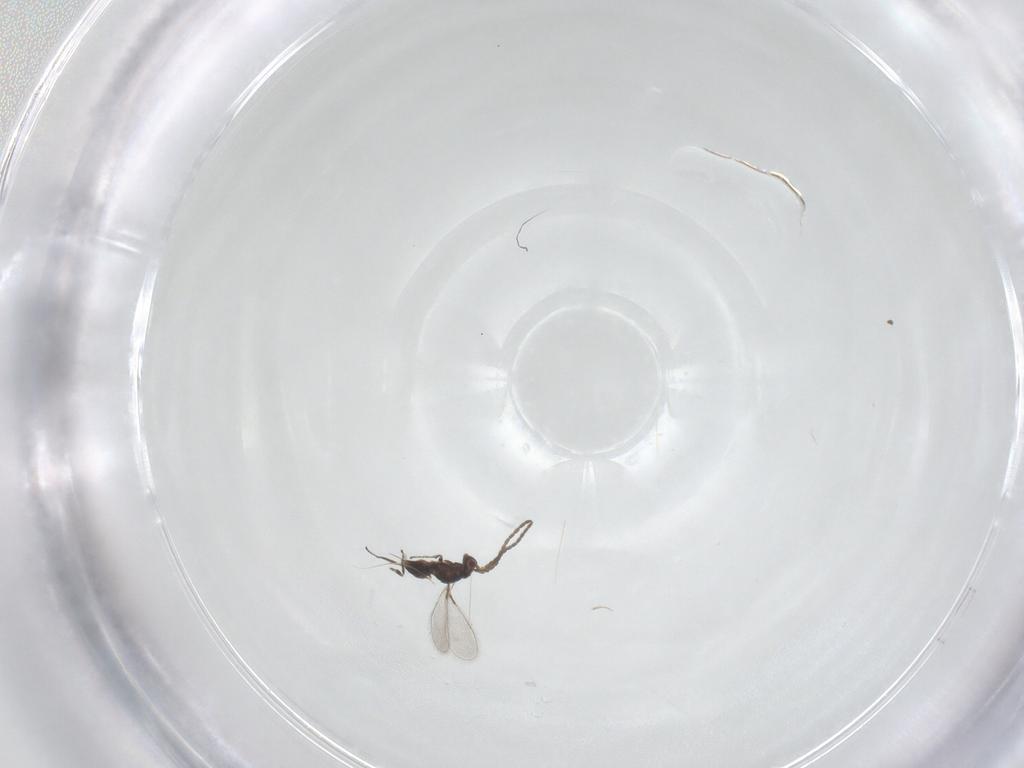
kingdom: Animalia
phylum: Arthropoda
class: Insecta
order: Hymenoptera
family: Mymaridae
